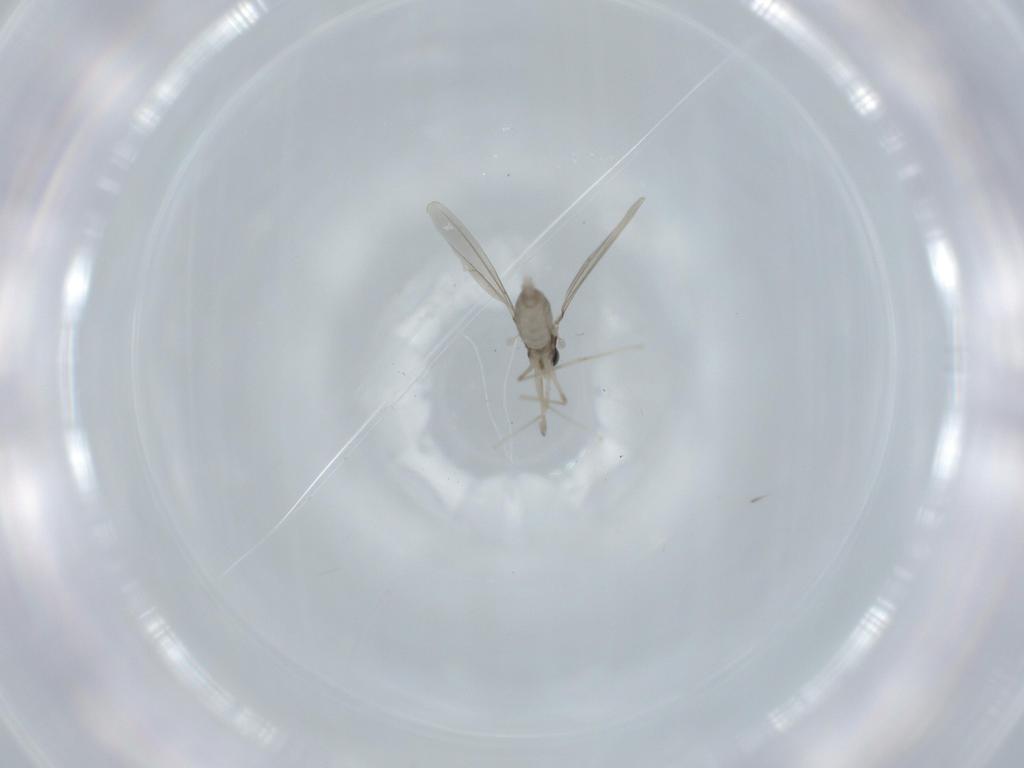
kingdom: Animalia
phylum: Arthropoda
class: Insecta
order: Diptera
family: Cecidomyiidae
